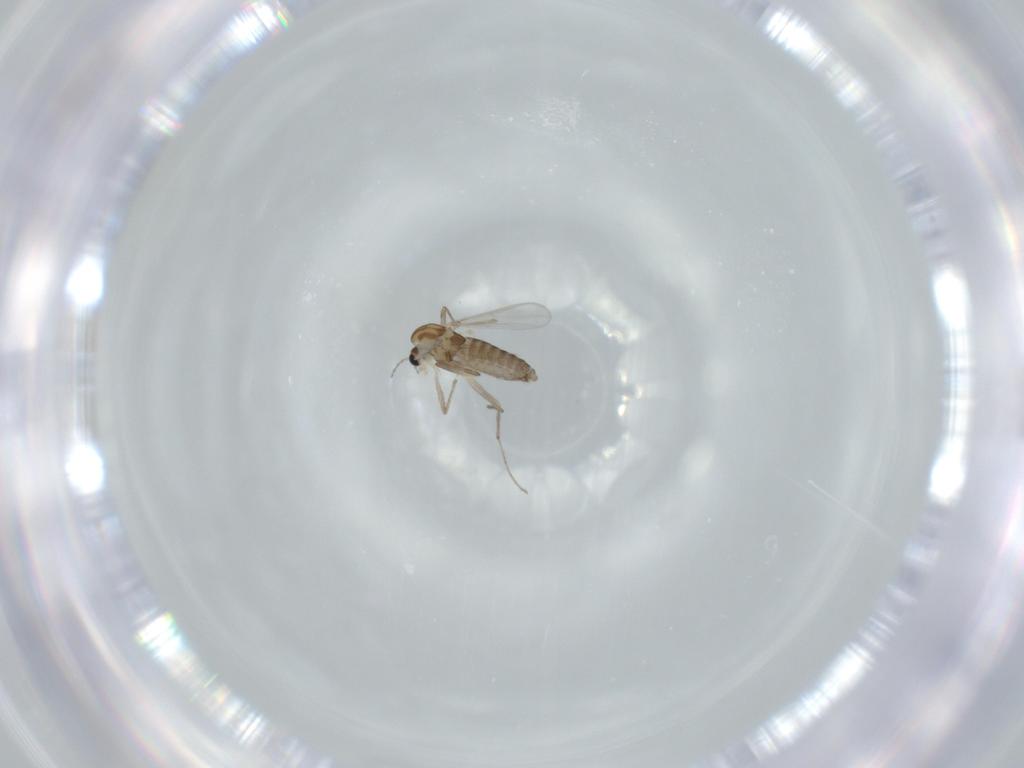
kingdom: Animalia
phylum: Arthropoda
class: Insecta
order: Diptera
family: Chironomidae
